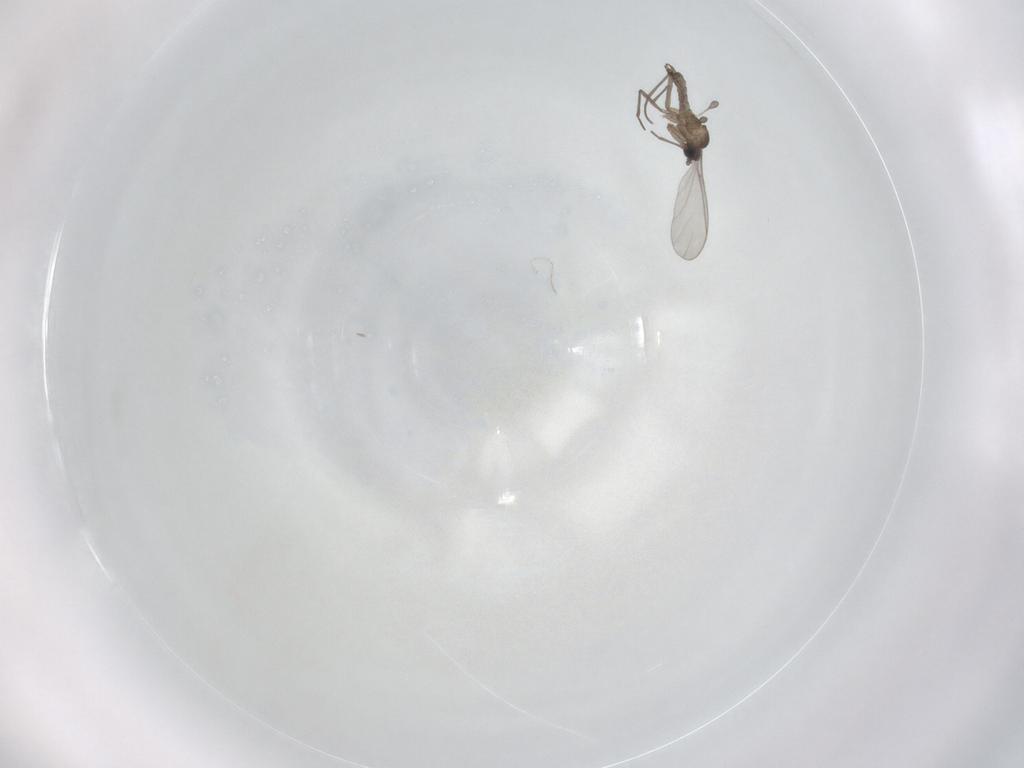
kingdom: Animalia
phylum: Arthropoda
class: Insecta
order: Diptera
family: Sciaridae
